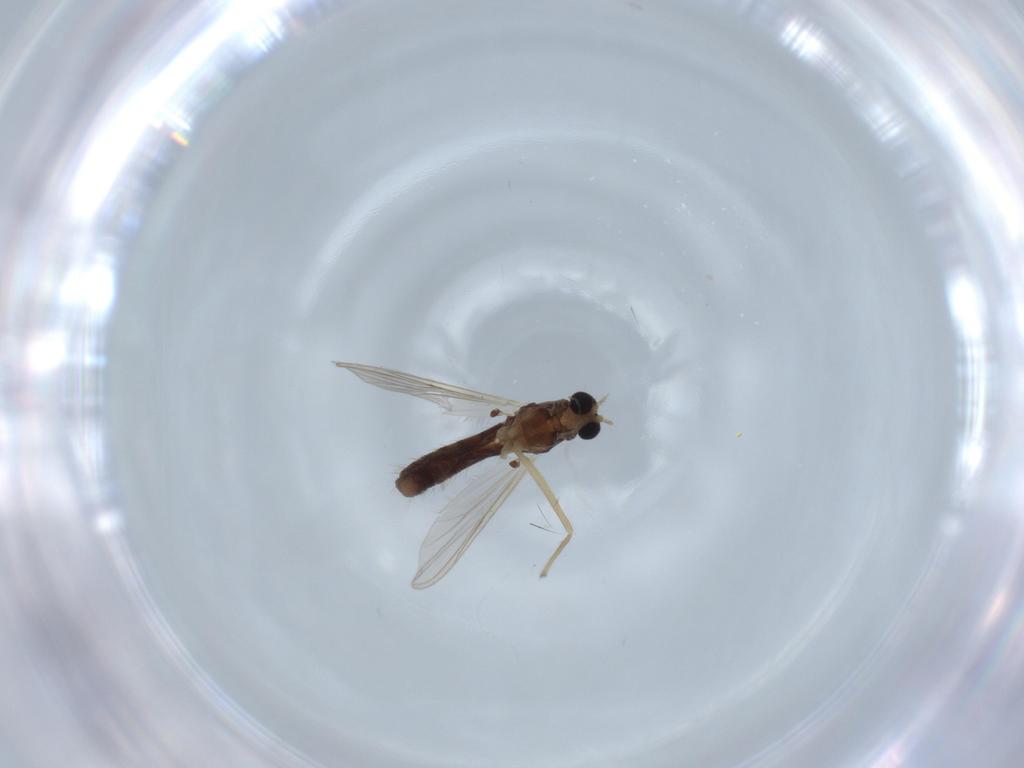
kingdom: Animalia
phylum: Arthropoda
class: Insecta
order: Diptera
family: Chironomidae
